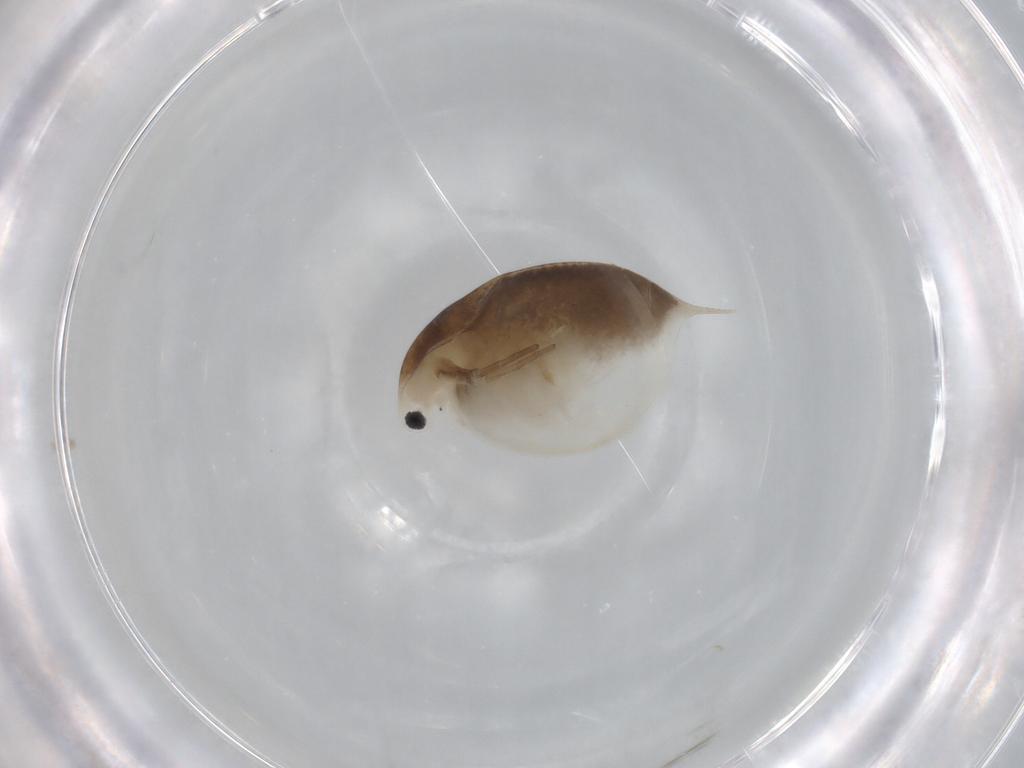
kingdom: Animalia
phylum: Arthropoda
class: Branchiopoda
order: Diplostraca
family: Daphniidae
